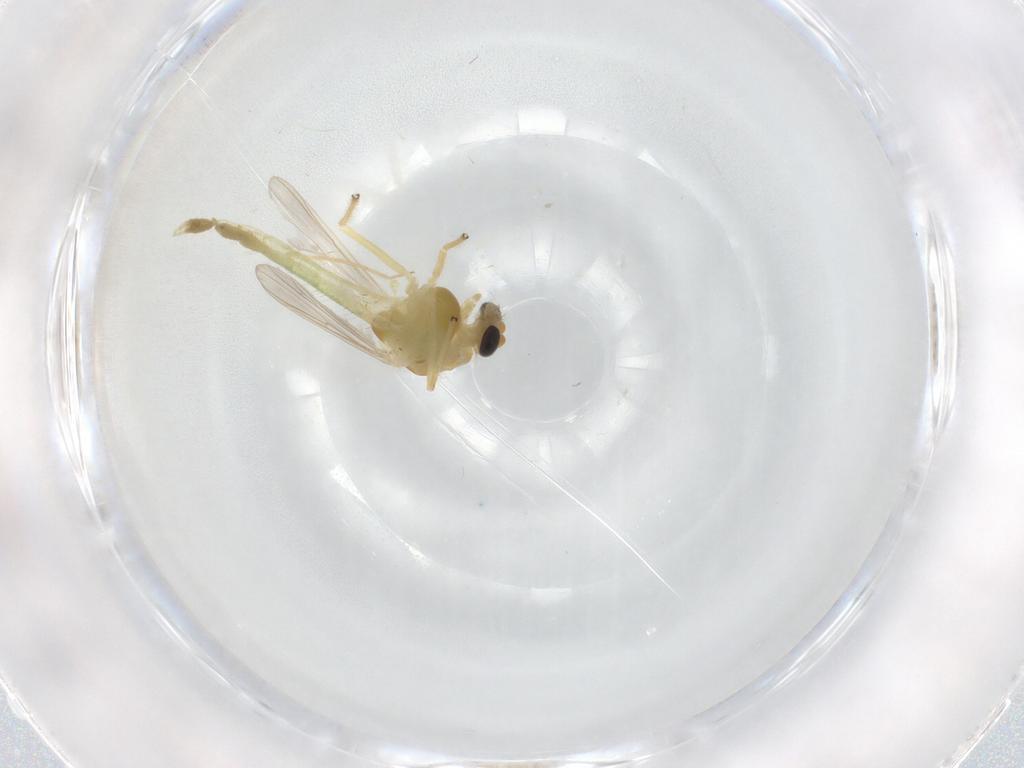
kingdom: Animalia
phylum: Arthropoda
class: Insecta
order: Diptera
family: Chironomidae
